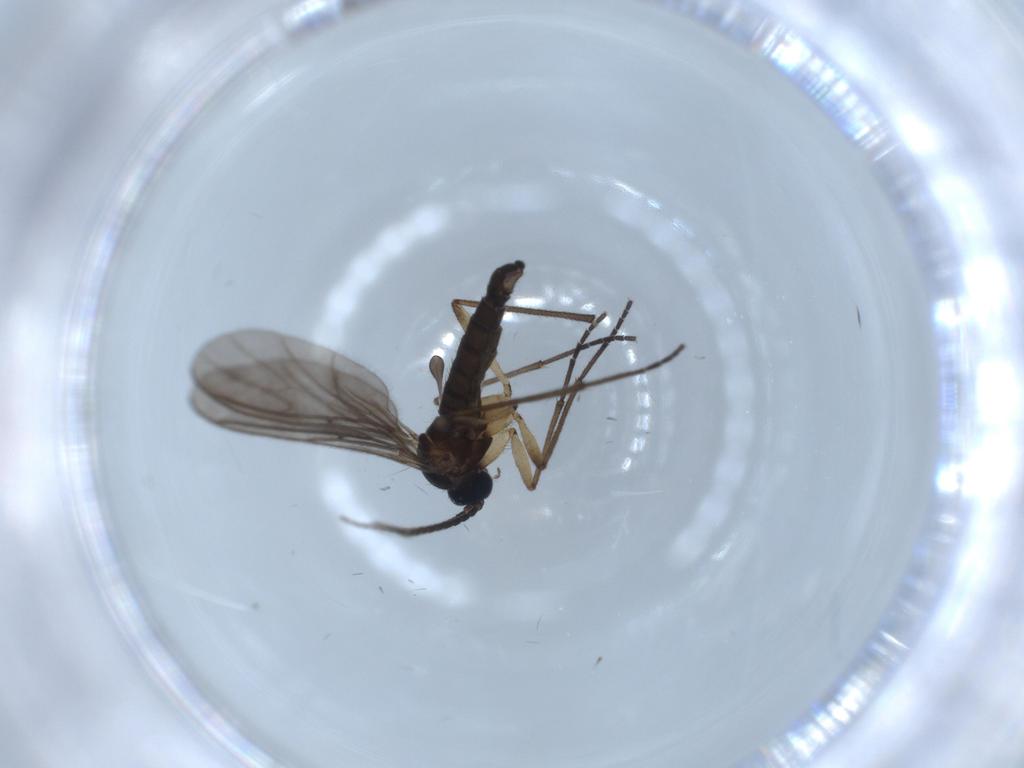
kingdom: Animalia
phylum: Arthropoda
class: Insecta
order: Diptera
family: Sciaridae
